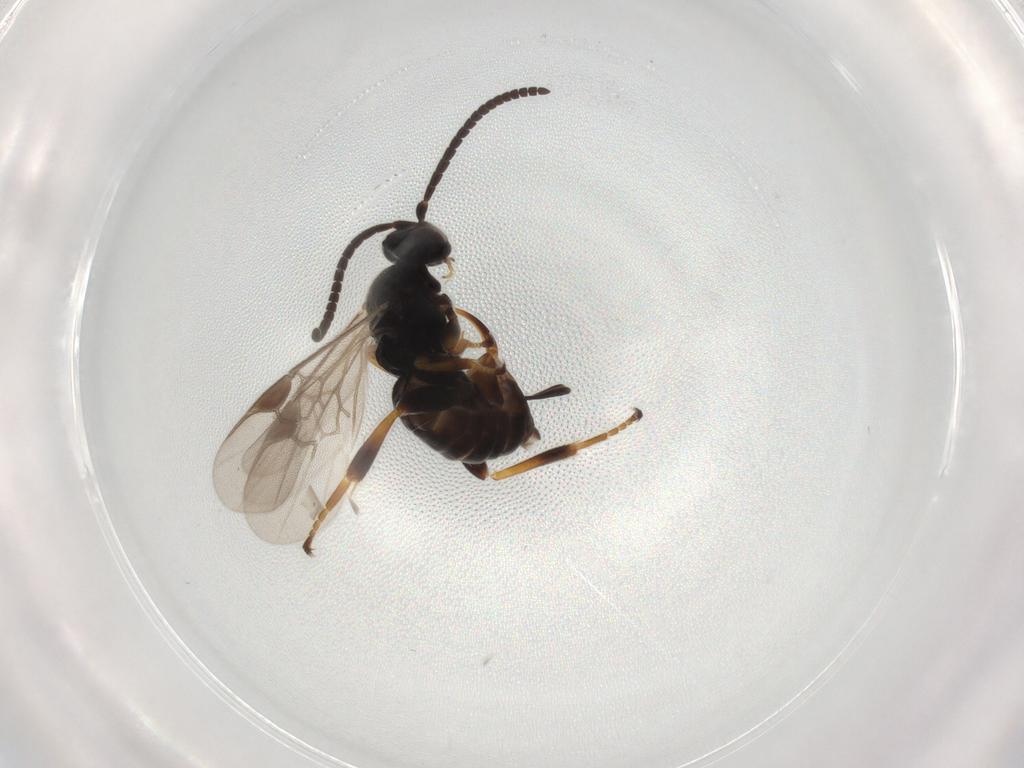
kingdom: Animalia
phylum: Arthropoda
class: Insecta
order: Hymenoptera
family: Braconidae
